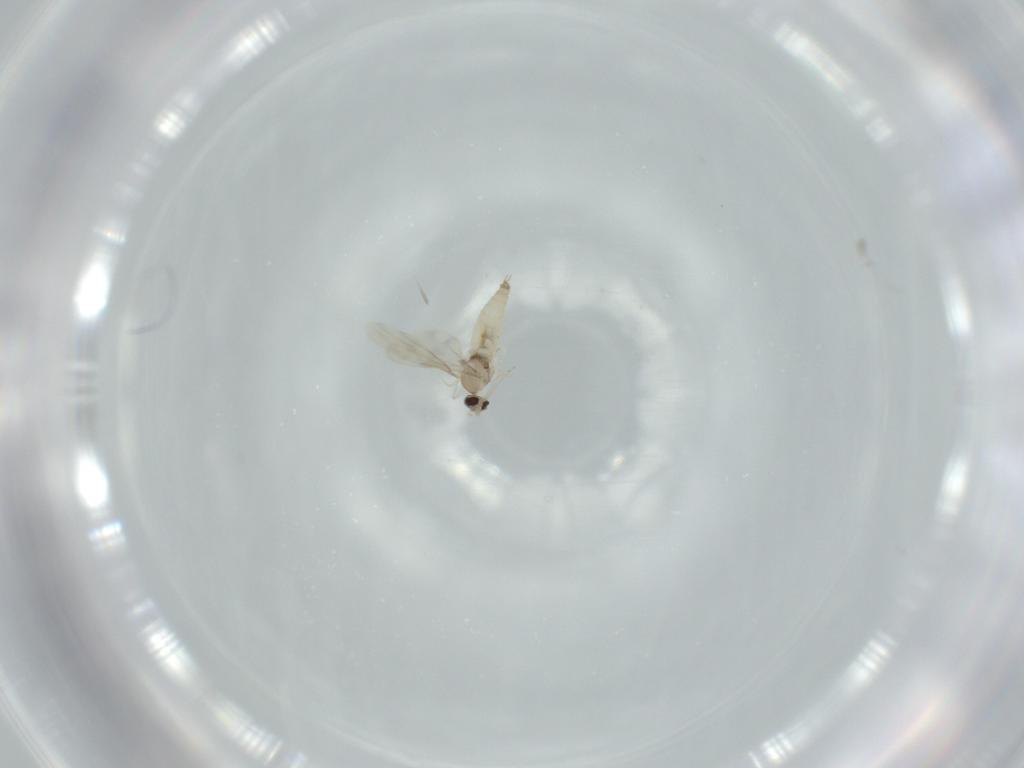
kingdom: Animalia
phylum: Arthropoda
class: Insecta
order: Diptera
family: Cecidomyiidae
